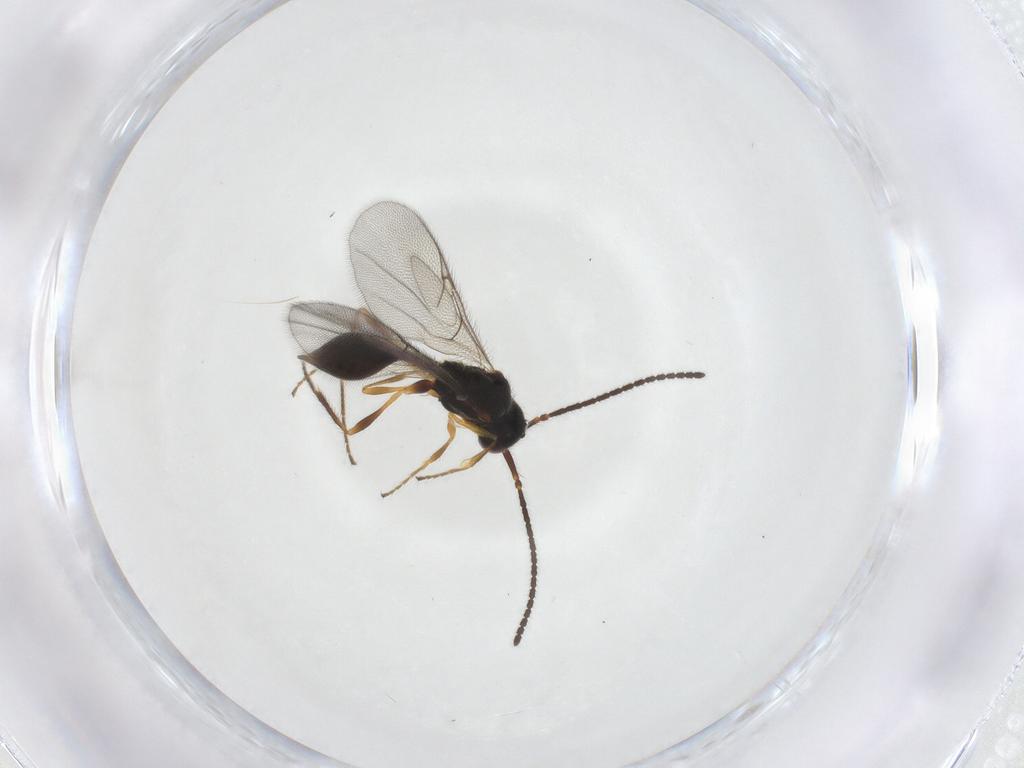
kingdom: Animalia
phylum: Arthropoda
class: Insecta
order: Hymenoptera
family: Diapriidae
